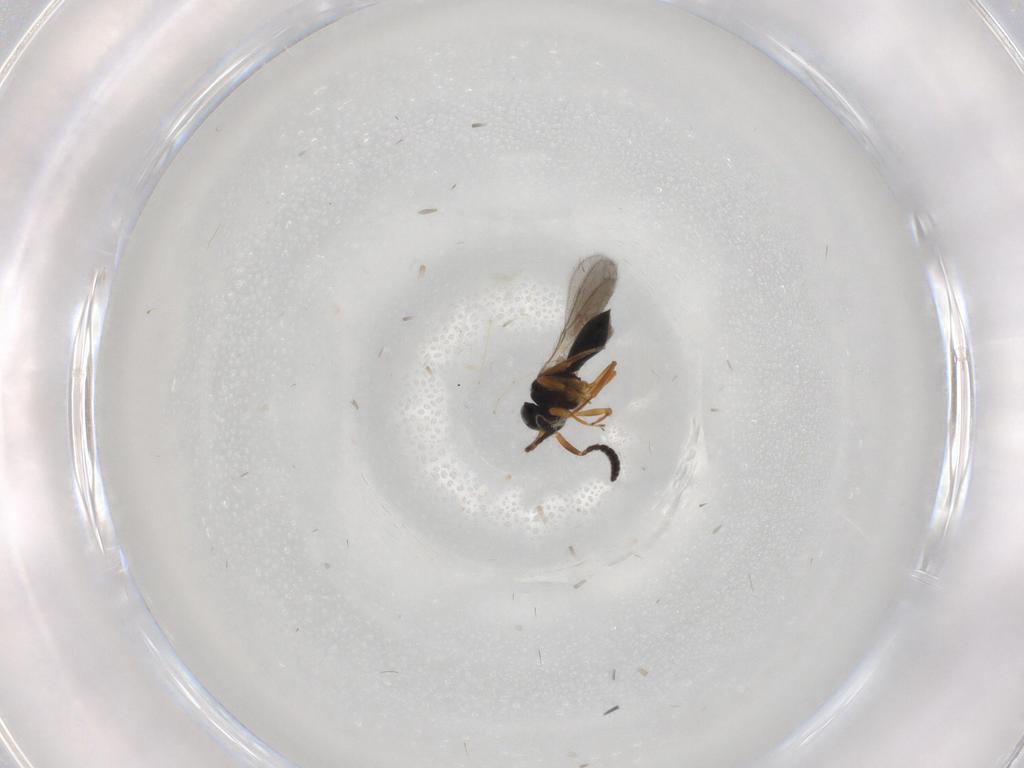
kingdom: Animalia
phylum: Arthropoda
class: Insecta
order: Hymenoptera
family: Scelionidae
